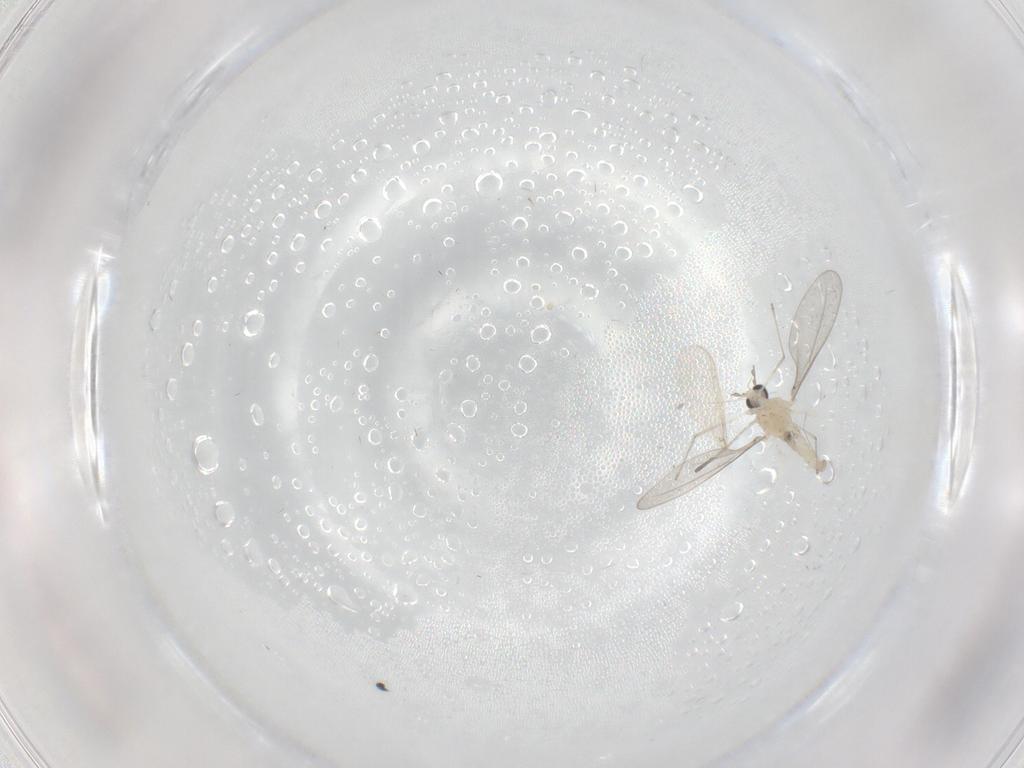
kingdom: Animalia
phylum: Arthropoda
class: Insecta
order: Diptera
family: Cecidomyiidae
